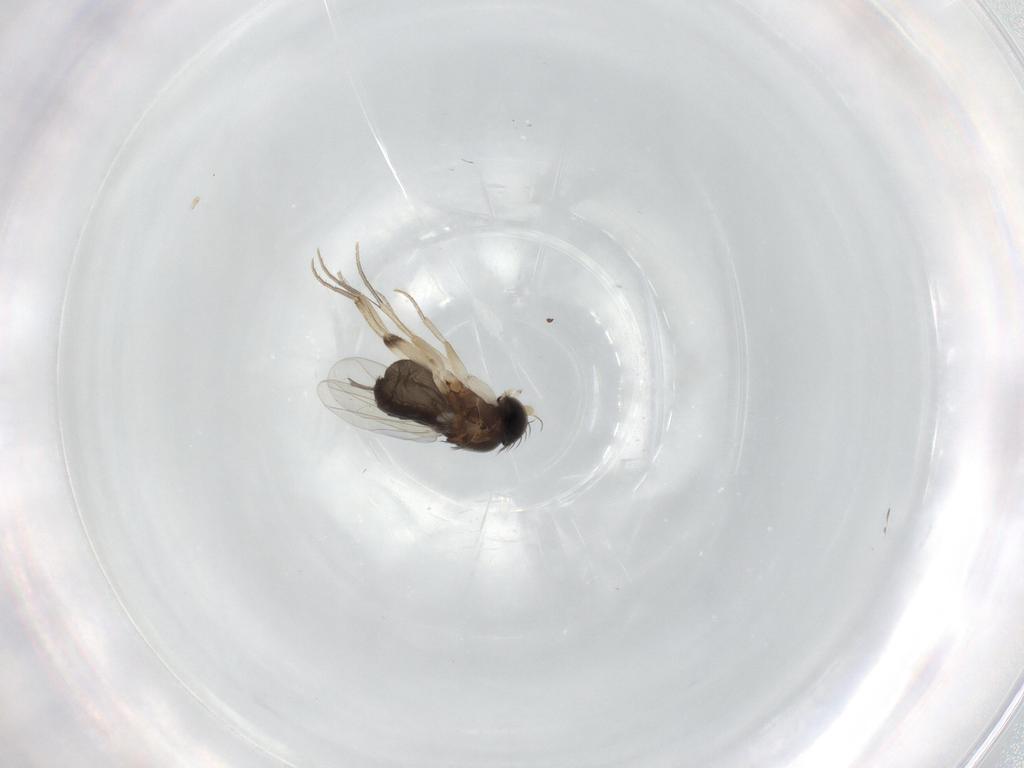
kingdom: Animalia
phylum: Arthropoda
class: Insecta
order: Diptera
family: Phoridae
